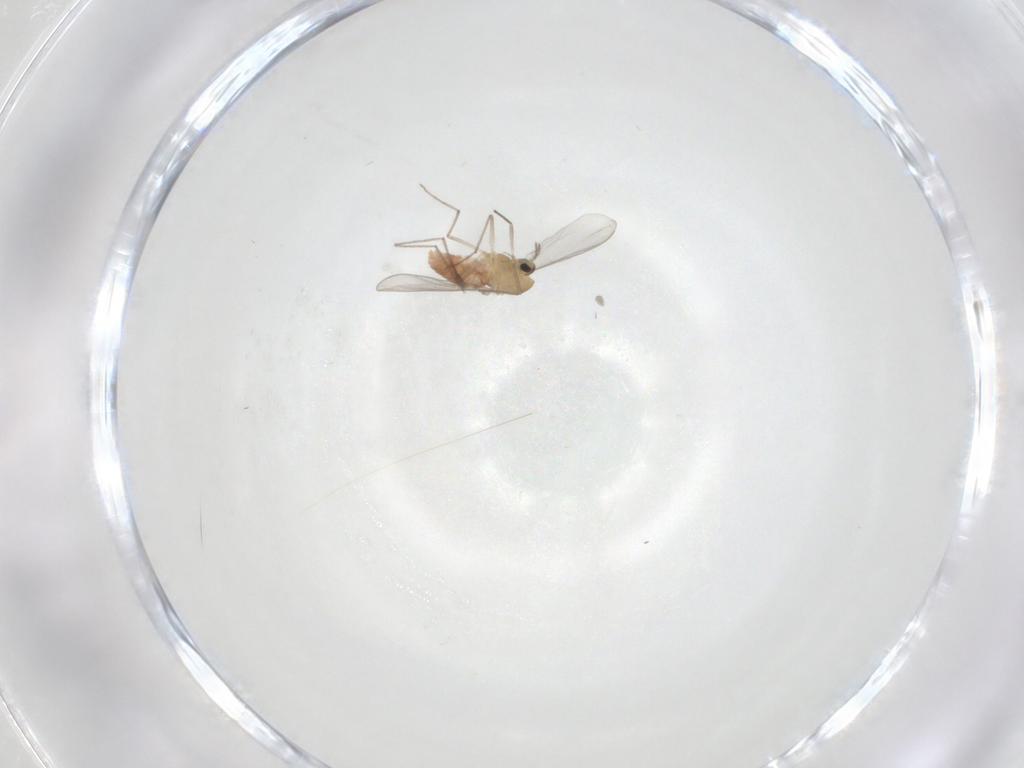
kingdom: Animalia
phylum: Arthropoda
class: Insecta
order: Diptera
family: Chironomidae
